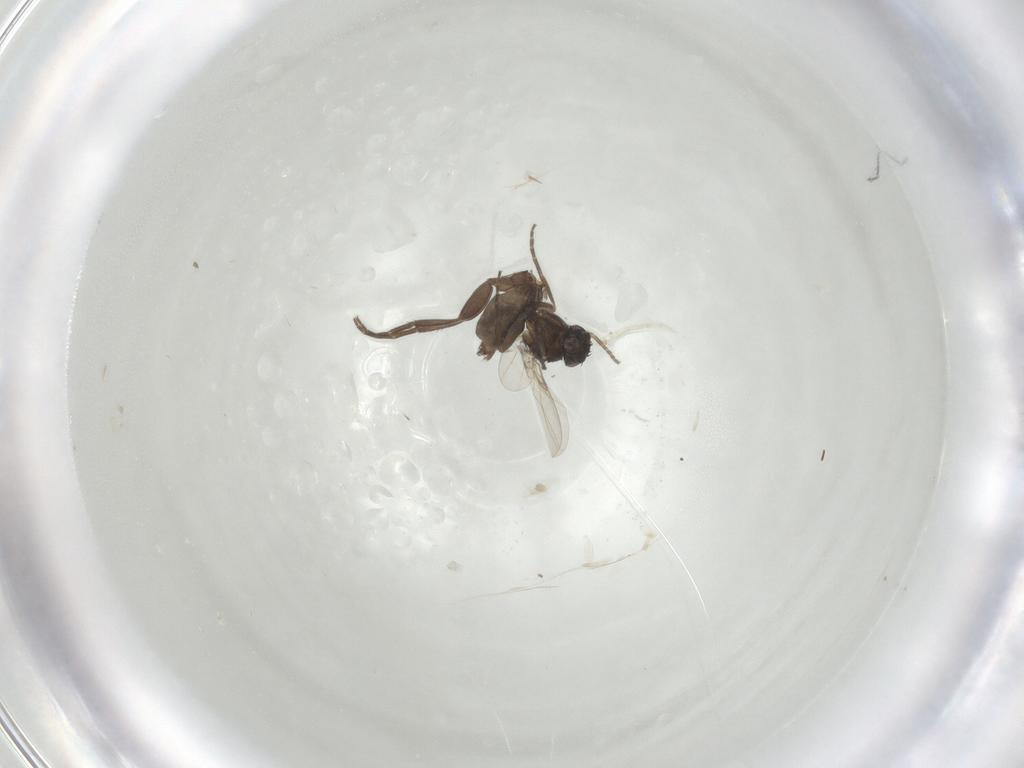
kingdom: Animalia
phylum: Arthropoda
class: Insecta
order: Diptera
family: Phoridae
